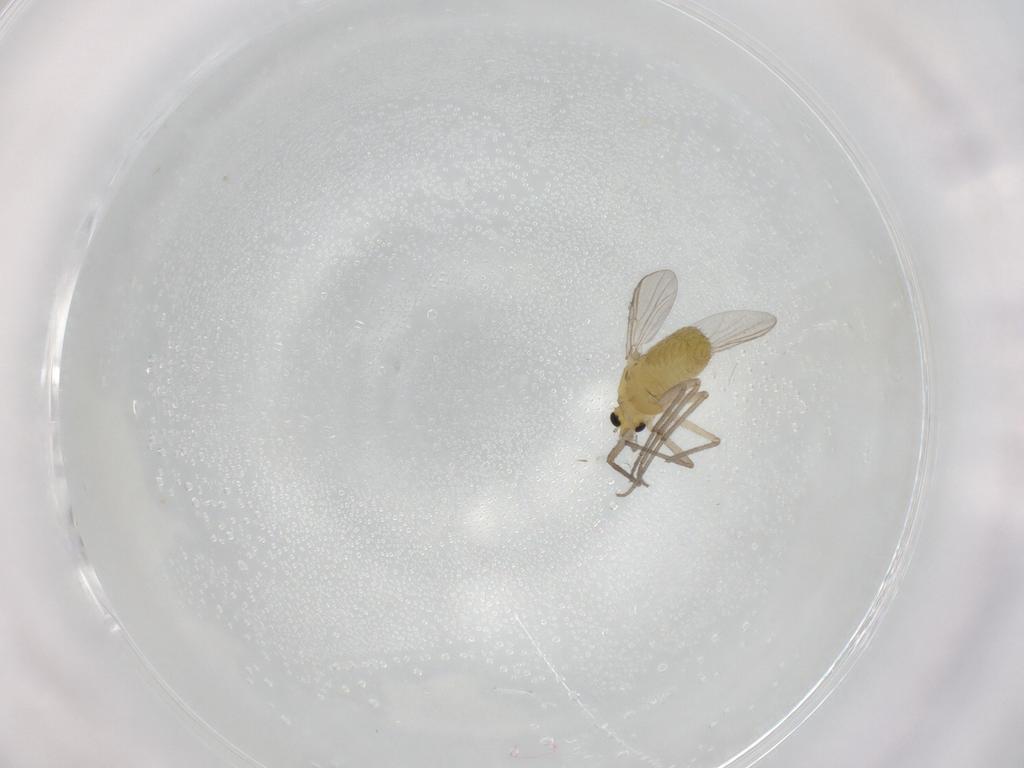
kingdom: Animalia
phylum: Arthropoda
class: Insecta
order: Diptera
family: Chironomidae
